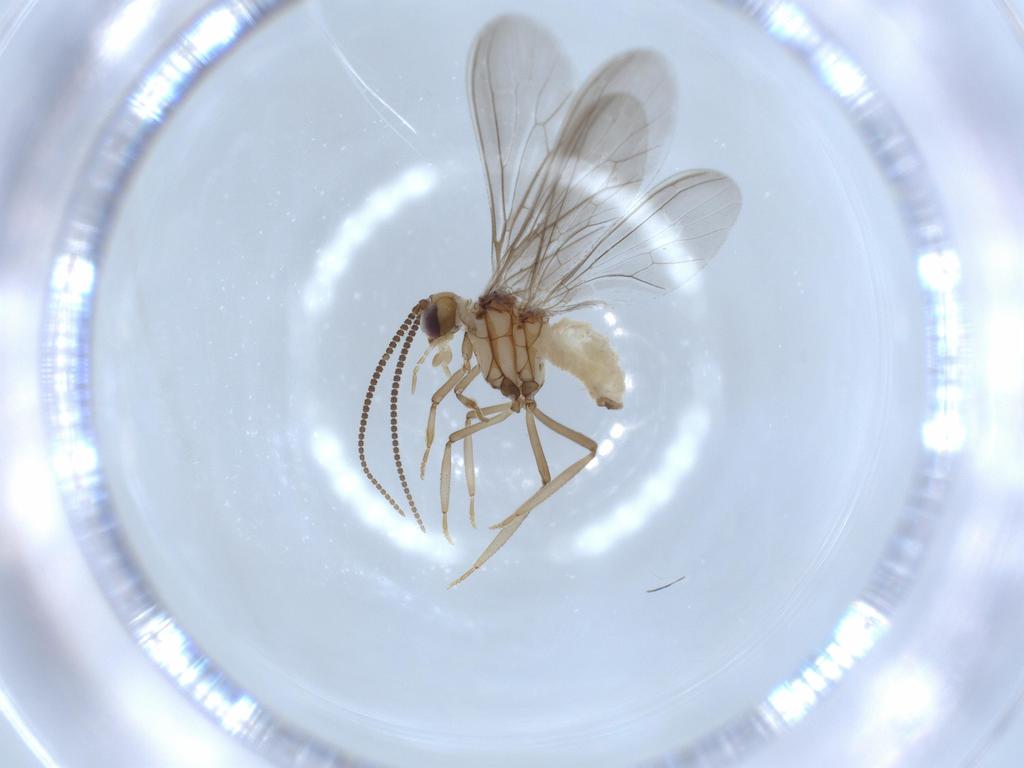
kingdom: Animalia
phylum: Arthropoda
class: Insecta
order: Neuroptera
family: Coniopterygidae
